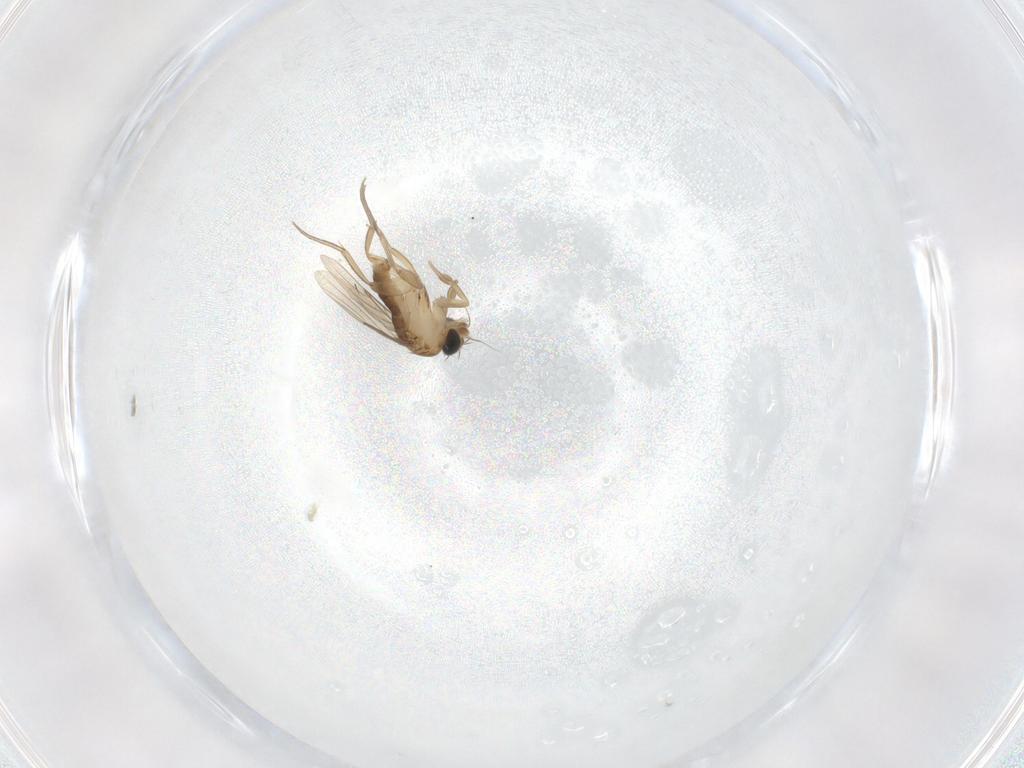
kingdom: Animalia
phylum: Arthropoda
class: Insecta
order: Diptera
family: Phoridae
